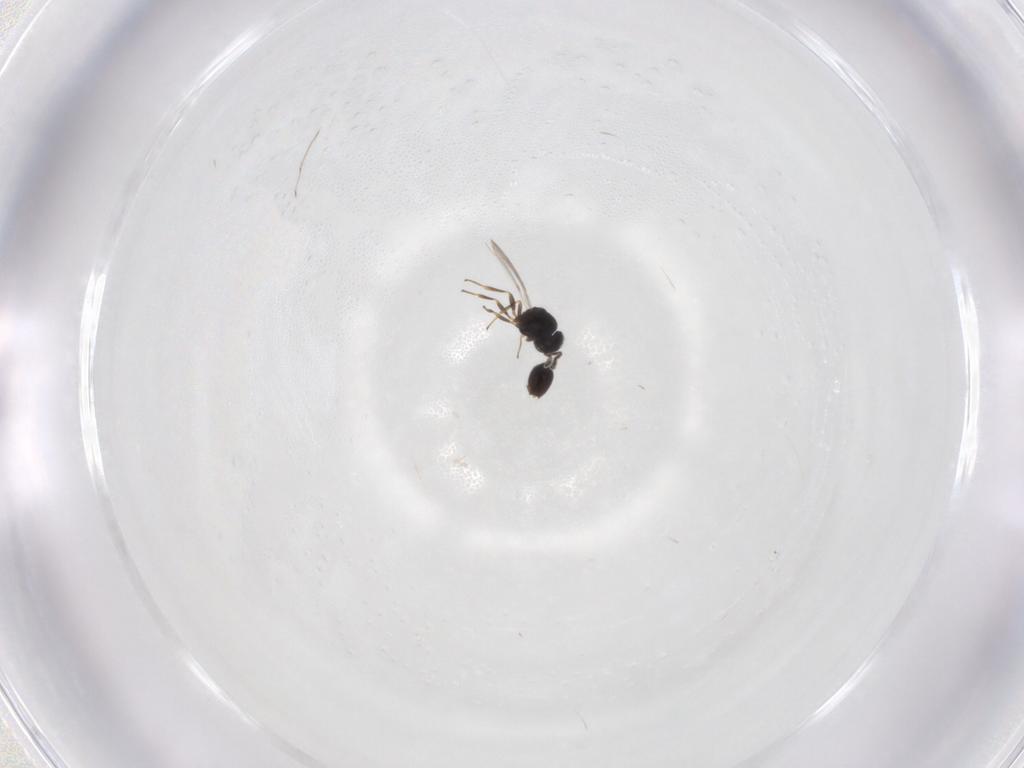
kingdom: Animalia
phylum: Arthropoda
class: Insecta
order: Hymenoptera
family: Scelionidae
